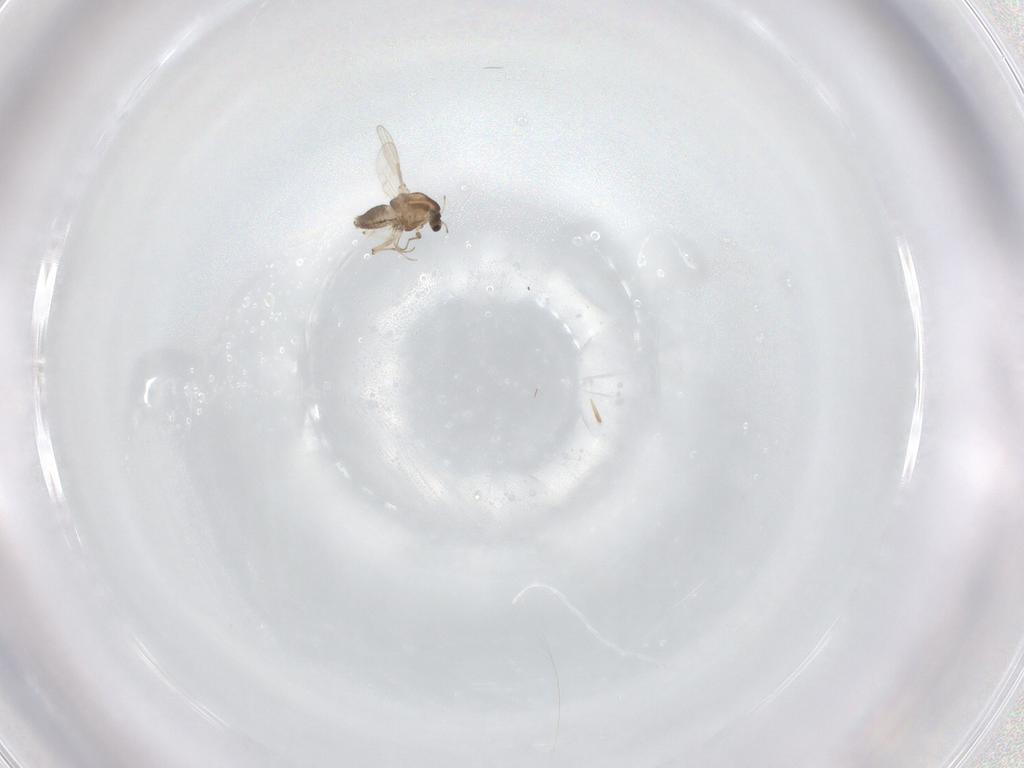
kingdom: Animalia
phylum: Arthropoda
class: Insecta
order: Diptera
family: Chironomidae
